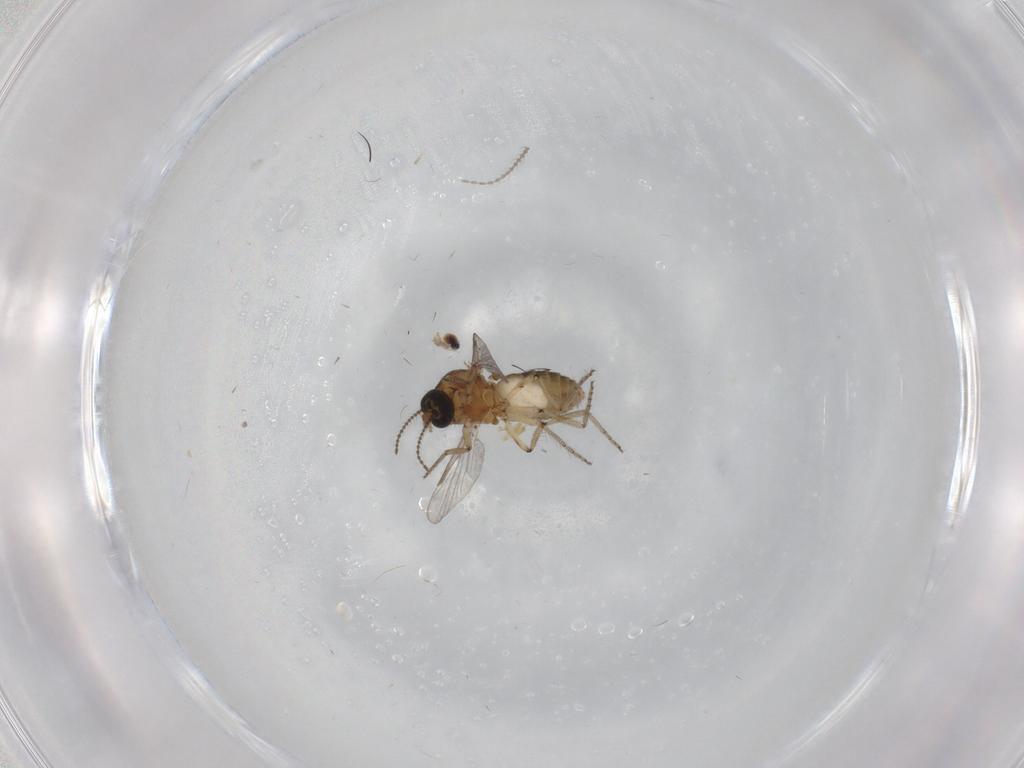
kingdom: Animalia
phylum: Arthropoda
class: Insecta
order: Diptera
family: Ceratopogonidae
